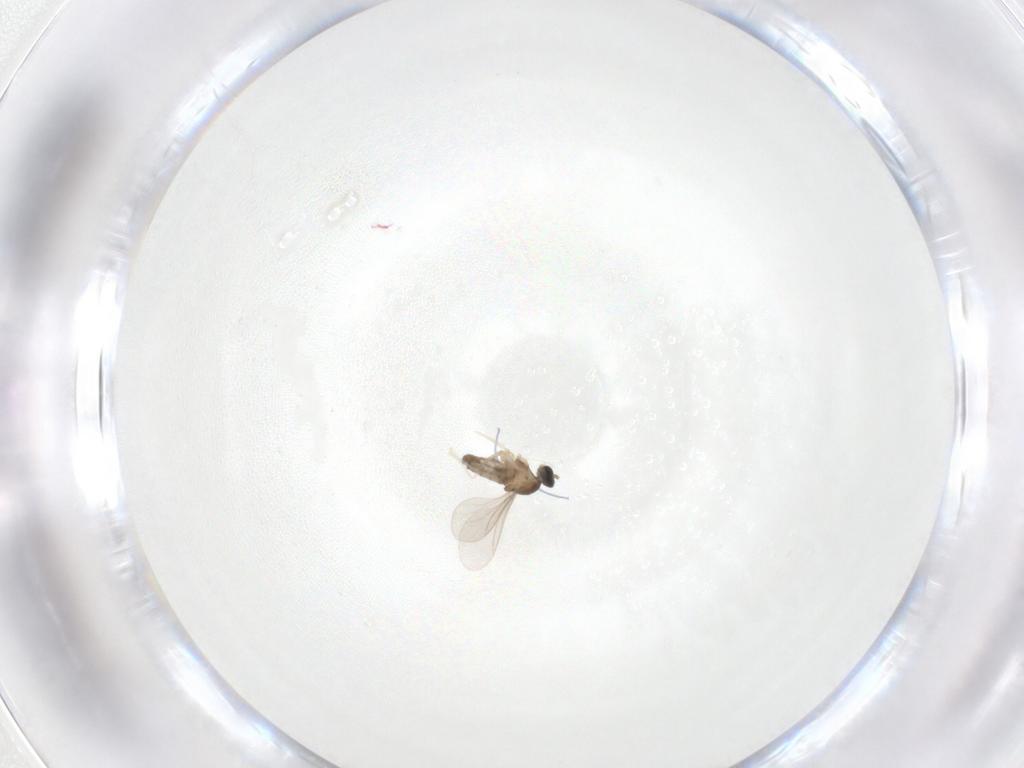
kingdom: Animalia
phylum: Arthropoda
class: Insecta
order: Diptera
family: Cecidomyiidae
